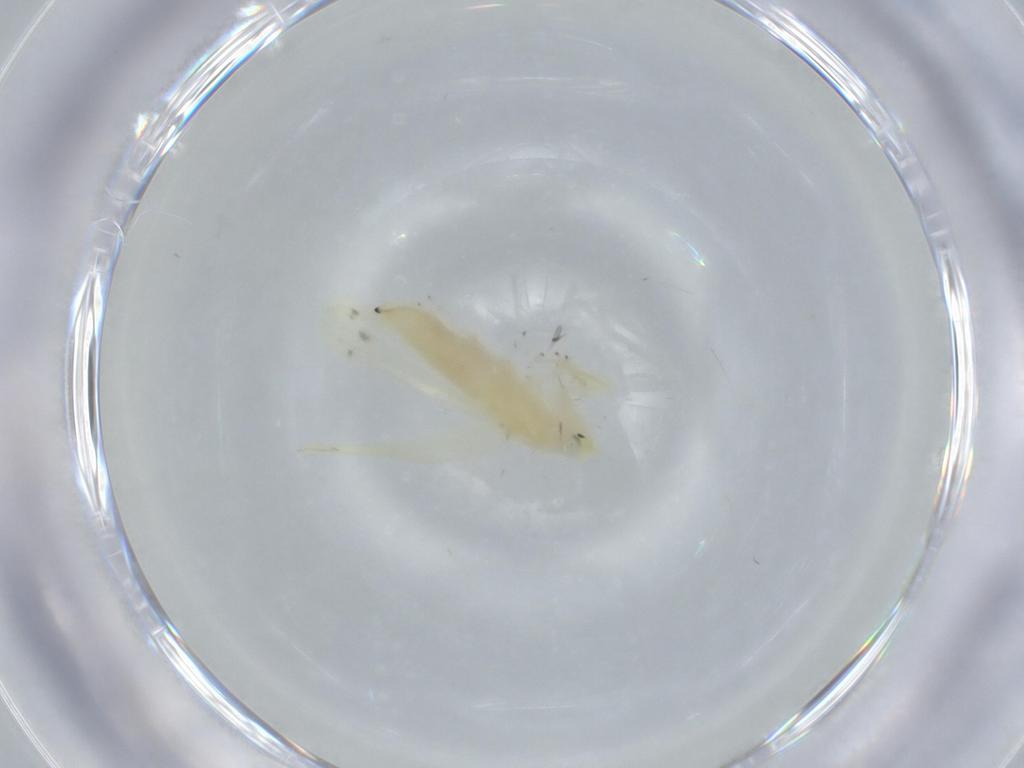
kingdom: Animalia
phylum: Arthropoda
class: Insecta
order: Hemiptera
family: Cicadellidae
